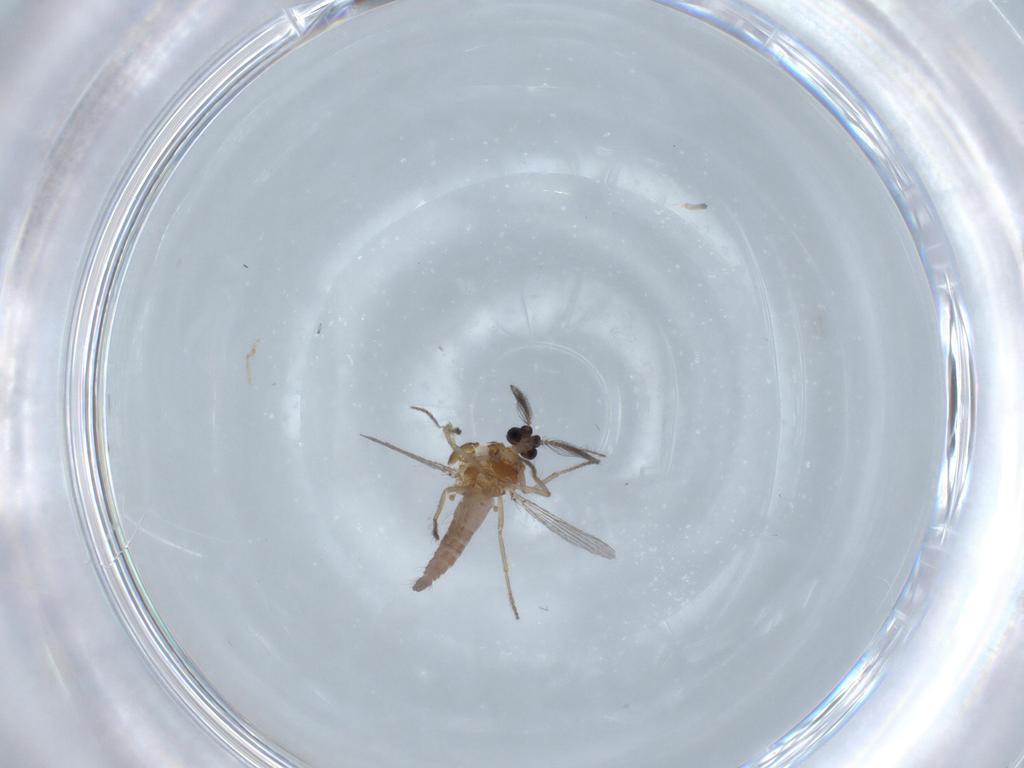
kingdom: Animalia
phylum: Arthropoda
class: Insecta
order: Diptera
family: Ceratopogonidae
